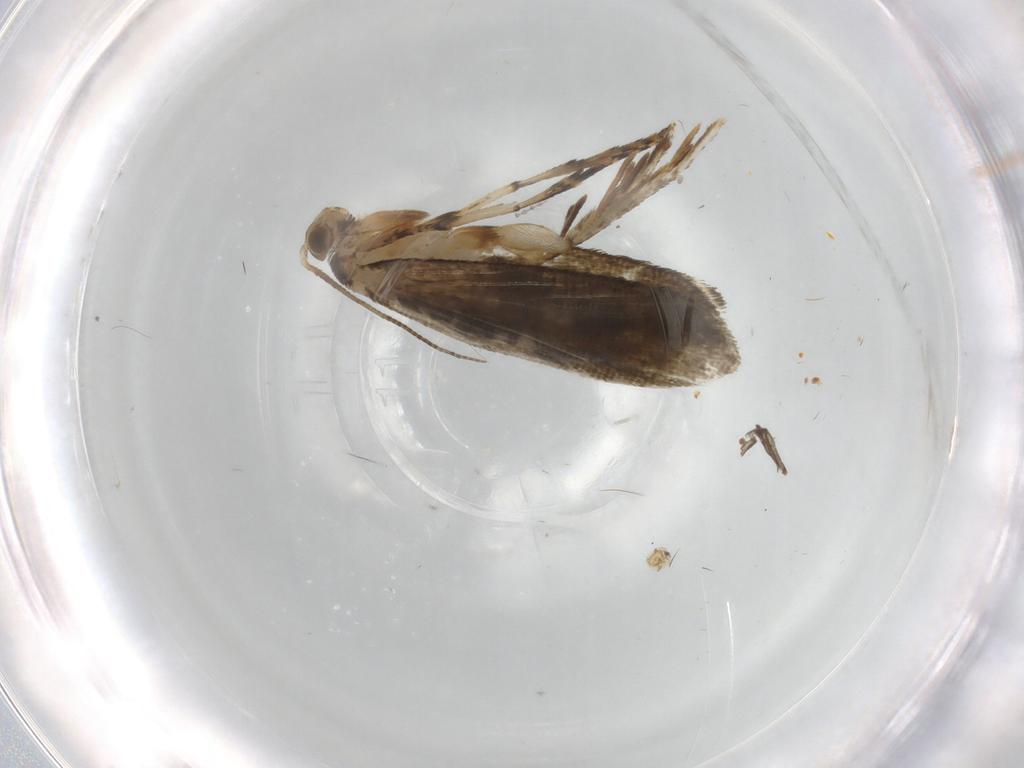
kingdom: Animalia
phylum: Arthropoda
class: Insecta
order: Lepidoptera
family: Crambidae
